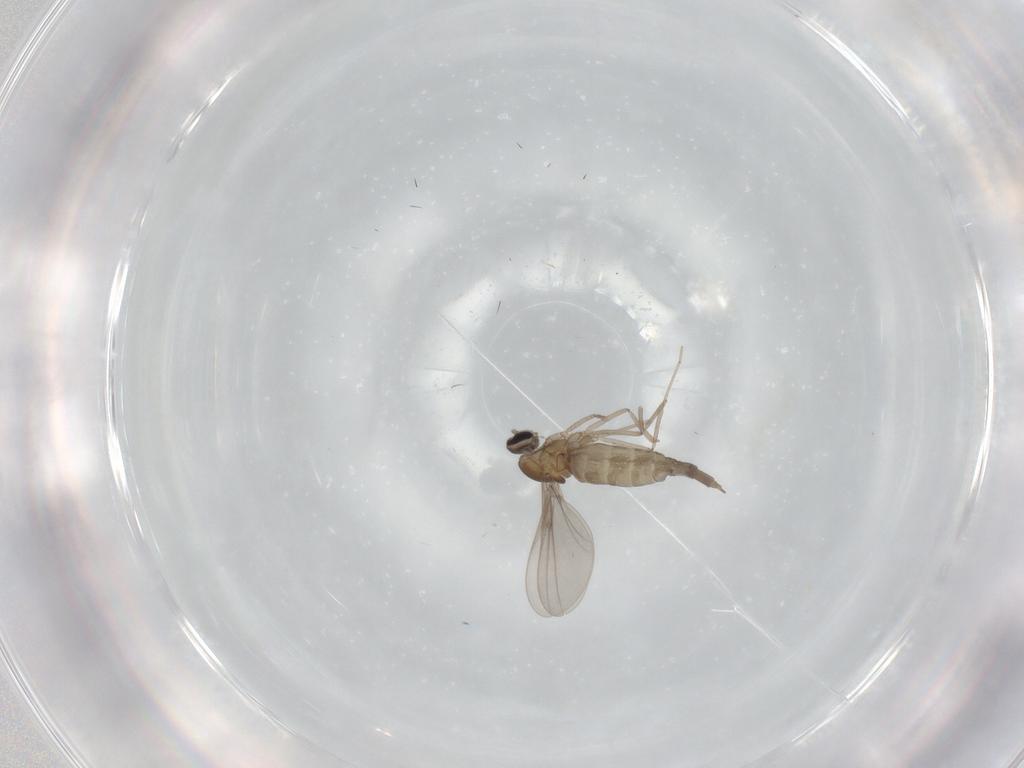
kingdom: Animalia
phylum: Arthropoda
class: Insecta
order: Diptera
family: Cecidomyiidae
